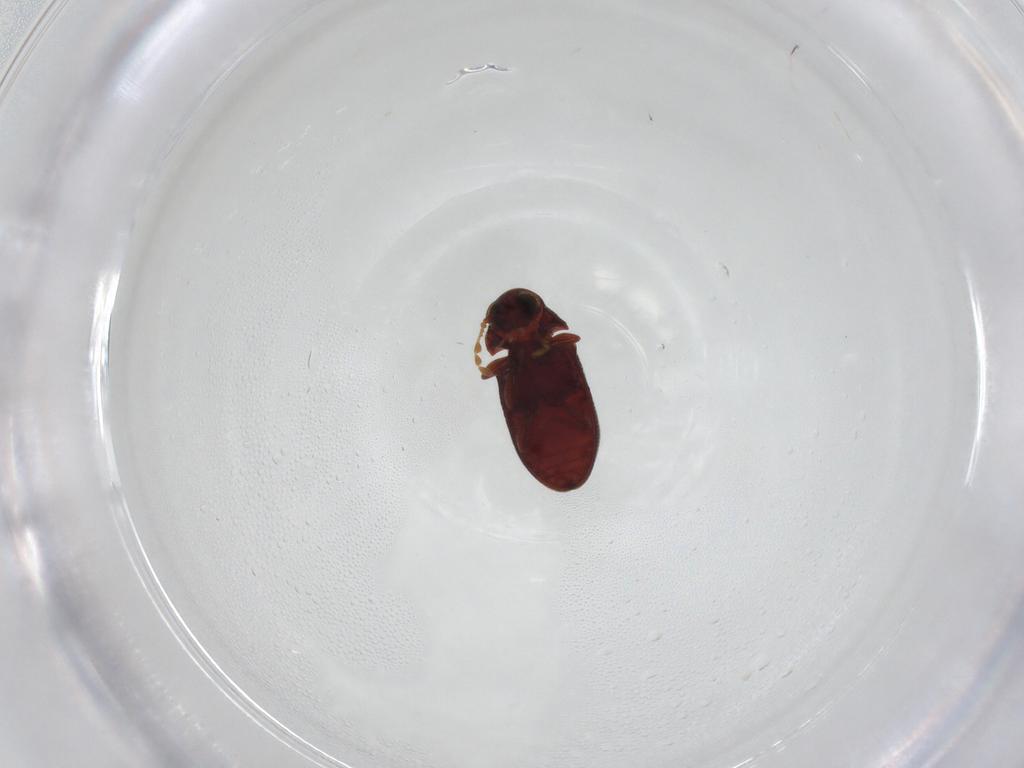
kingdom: Animalia
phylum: Arthropoda
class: Insecta
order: Coleoptera
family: Ptinidae
